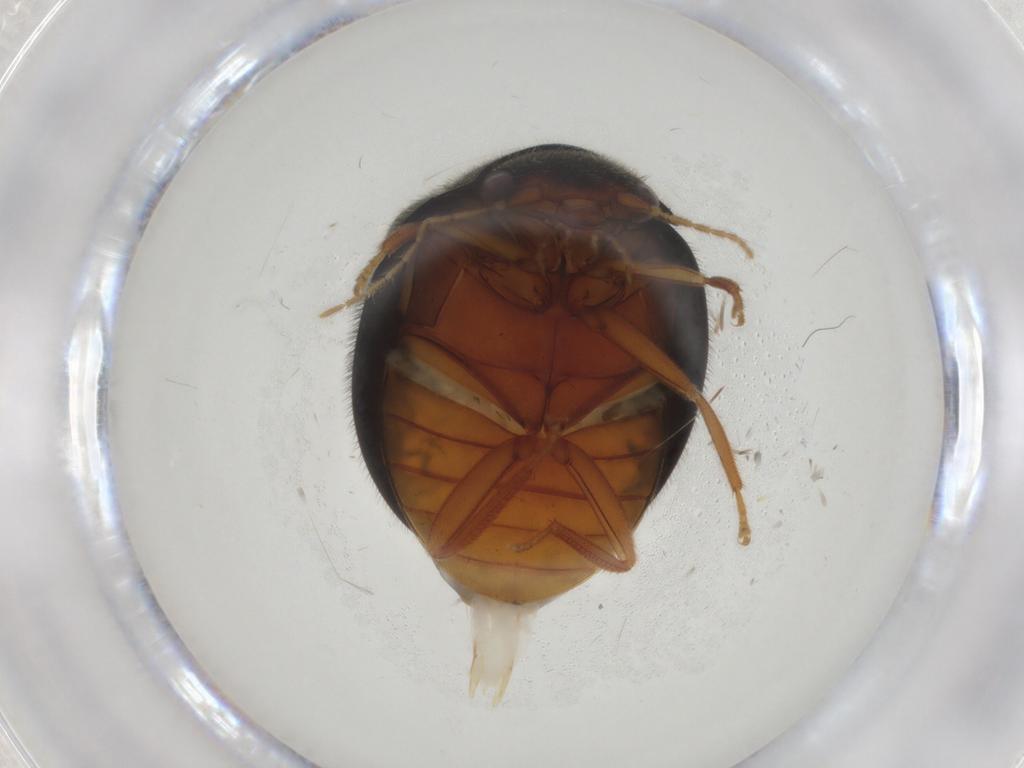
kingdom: Animalia
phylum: Arthropoda
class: Insecta
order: Coleoptera
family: Scirtidae
